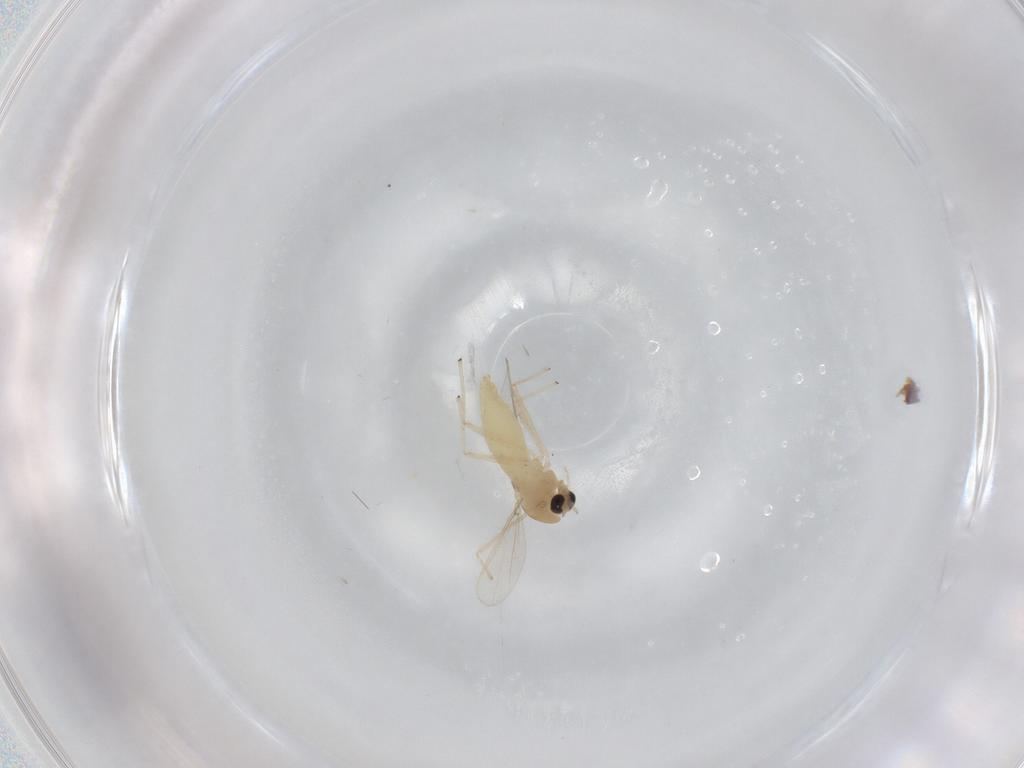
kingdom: Animalia
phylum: Arthropoda
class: Insecta
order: Diptera
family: Chironomidae
